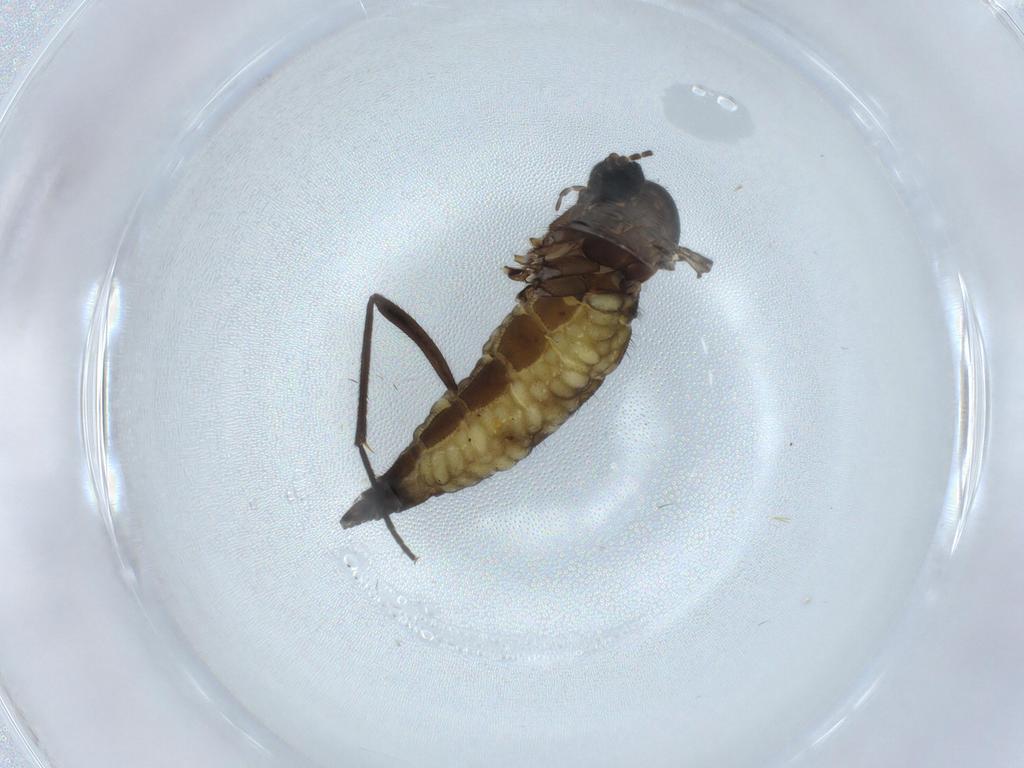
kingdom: Animalia
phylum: Arthropoda
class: Insecta
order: Diptera
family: Sciaridae
